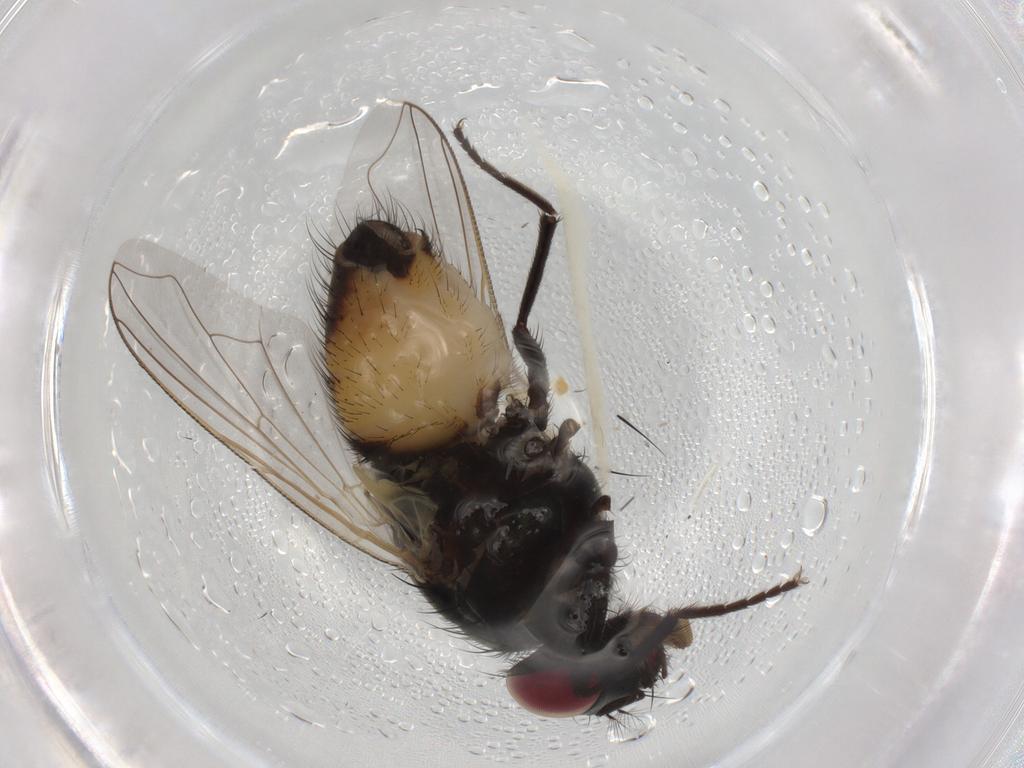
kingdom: Animalia
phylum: Arthropoda
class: Insecta
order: Diptera
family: Muscidae
